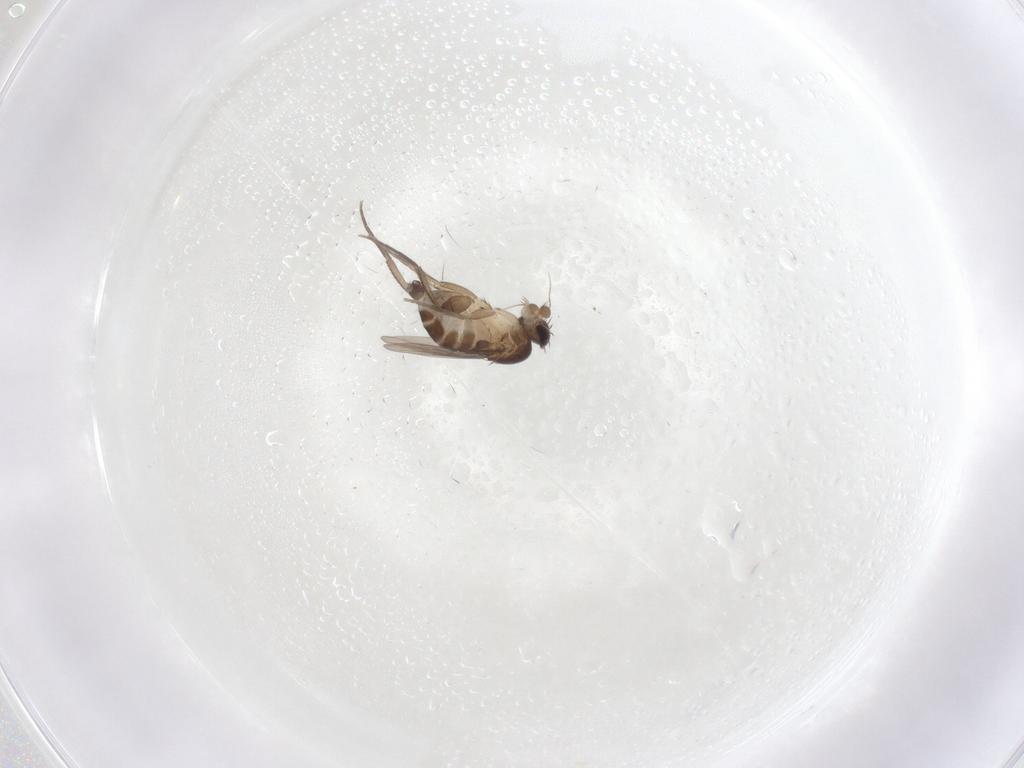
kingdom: Animalia
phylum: Arthropoda
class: Insecta
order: Diptera
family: Phoridae
